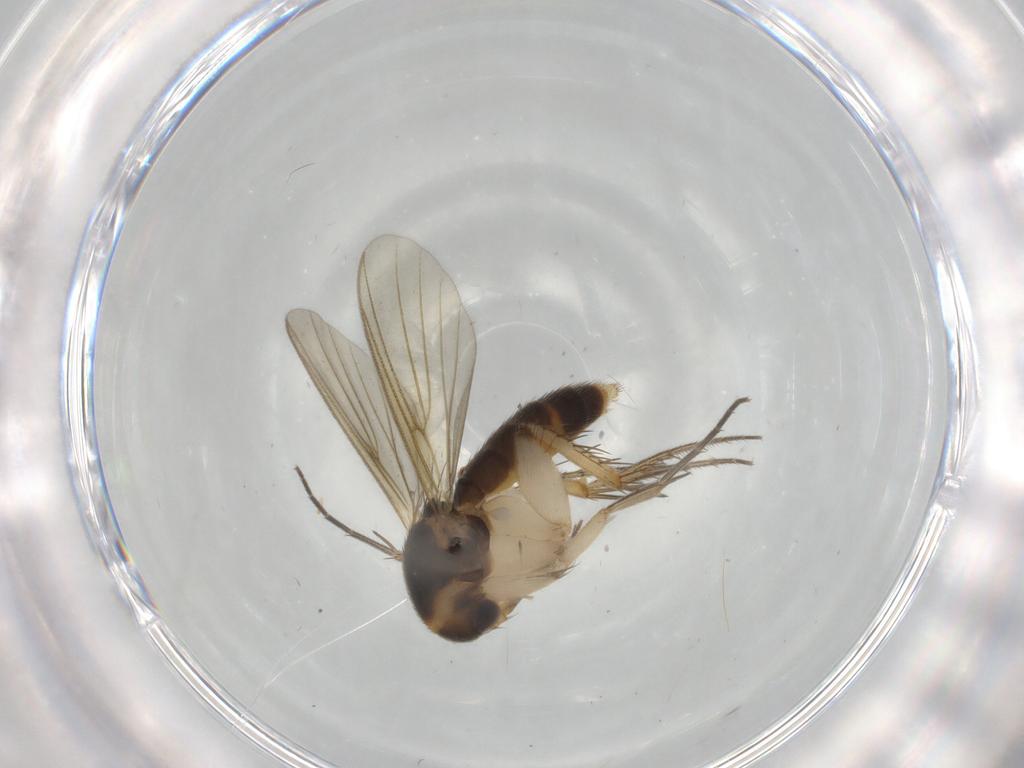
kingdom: Animalia
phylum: Arthropoda
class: Insecta
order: Diptera
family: Mycetophilidae
